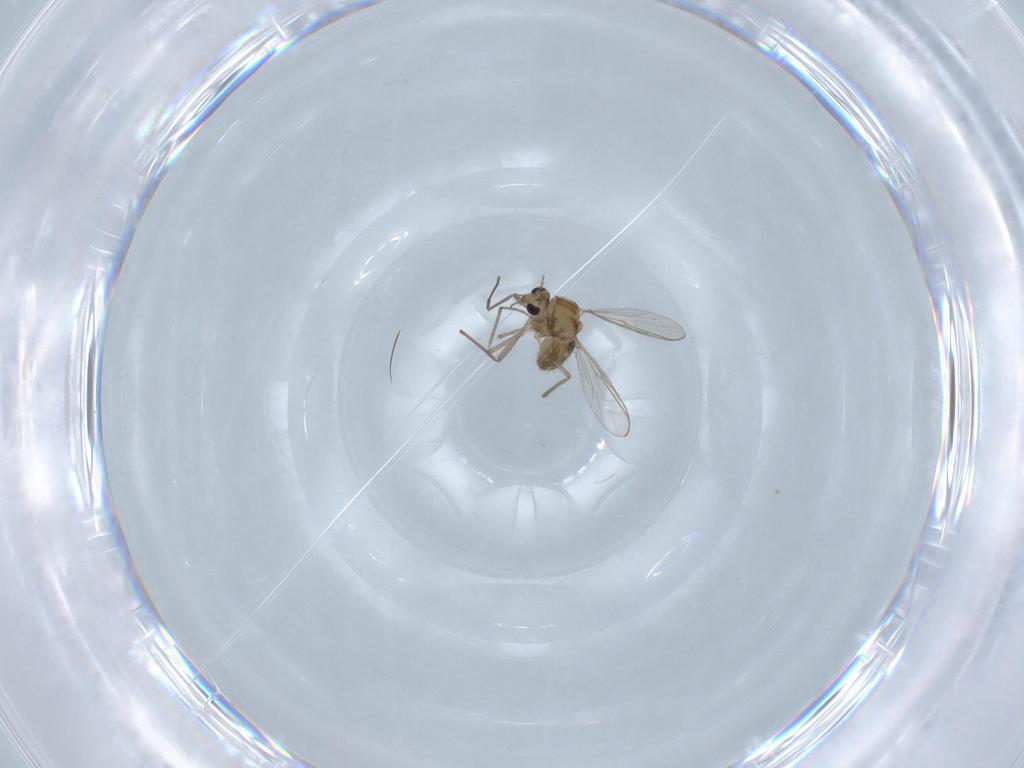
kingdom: Animalia
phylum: Arthropoda
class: Insecta
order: Diptera
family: Chironomidae
